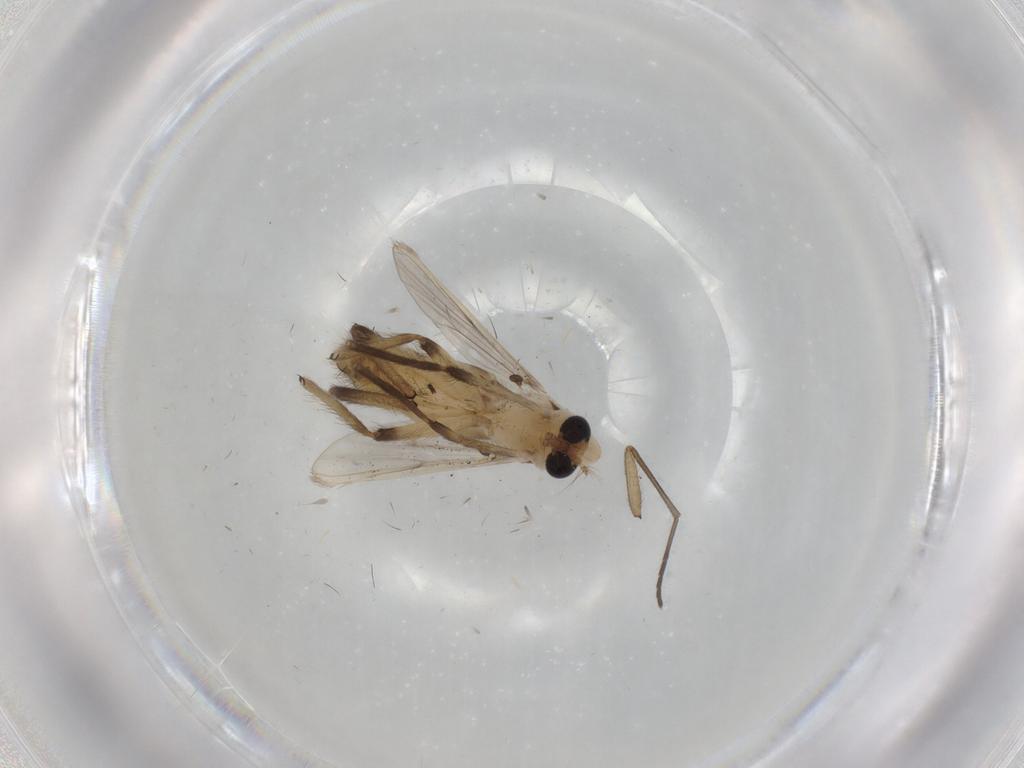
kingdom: Animalia
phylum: Arthropoda
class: Insecta
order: Diptera
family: Chironomidae
